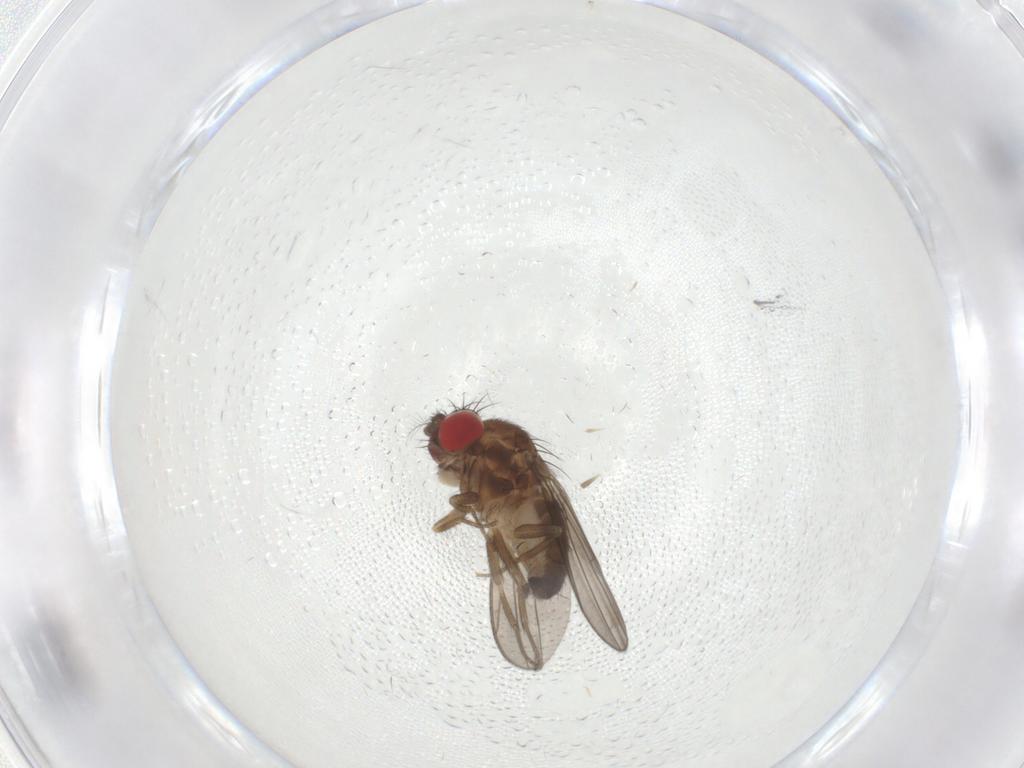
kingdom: Animalia
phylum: Arthropoda
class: Insecta
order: Diptera
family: Drosophilidae
